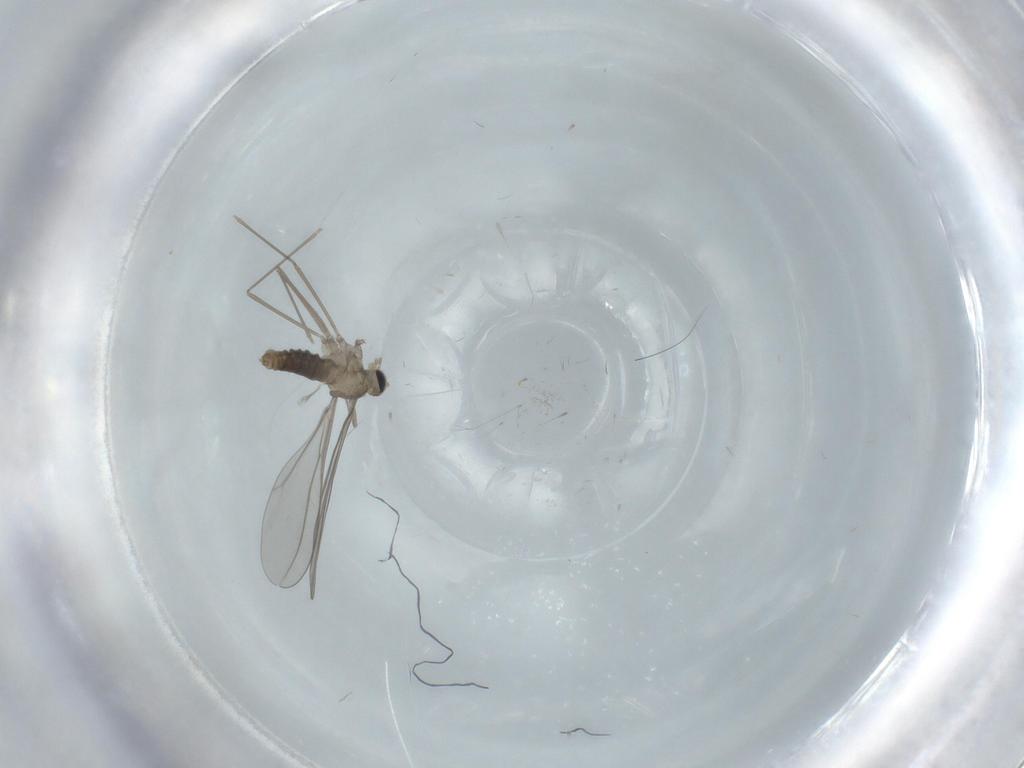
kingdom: Animalia
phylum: Arthropoda
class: Insecta
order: Diptera
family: Cecidomyiidae
